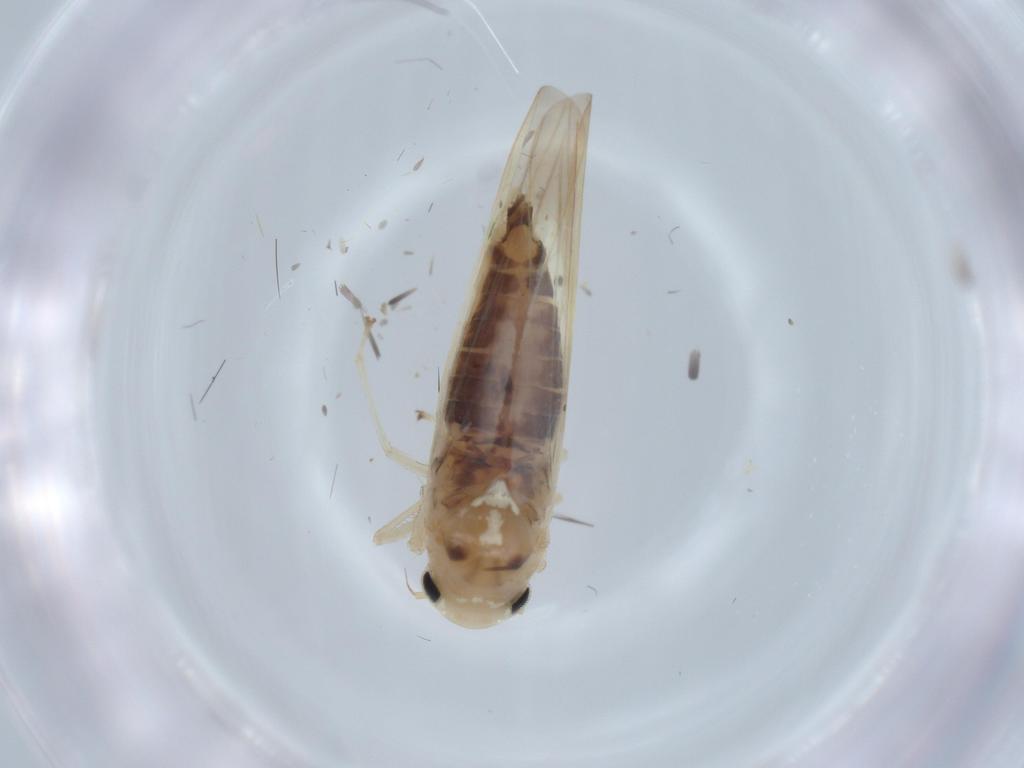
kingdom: Animalia
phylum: Arthropoda
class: Insecta
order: Hemiptera
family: Cicadellidae
